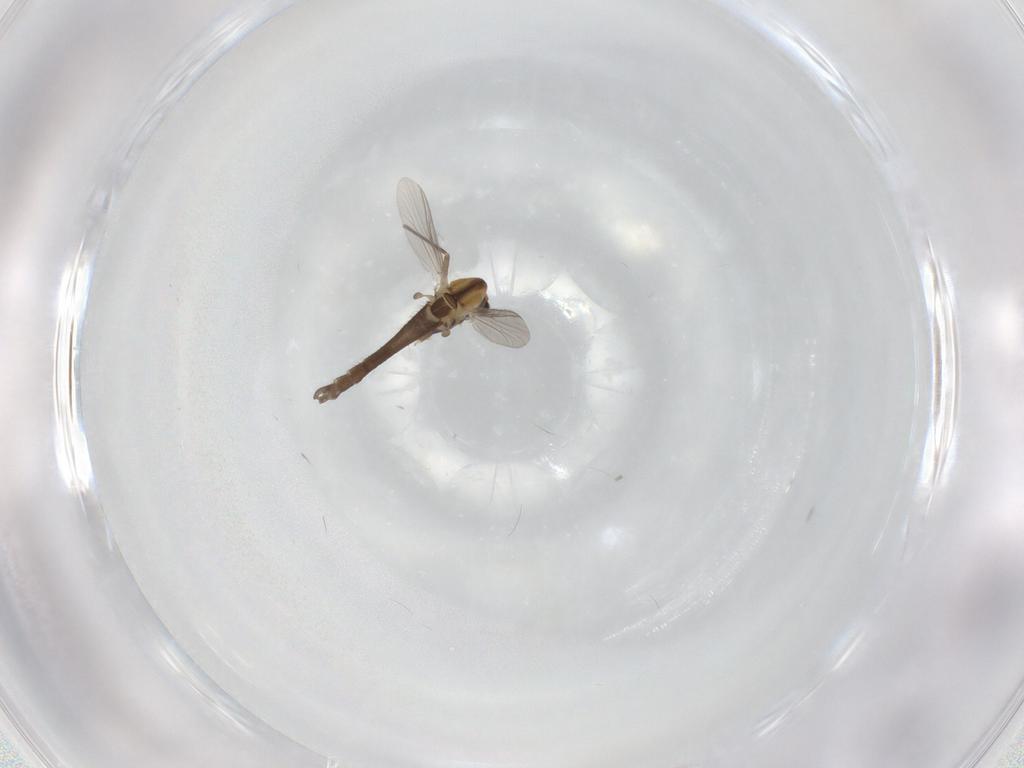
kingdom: Animalia
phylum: Arthropoda
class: Insecta
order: Diptera
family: Chironomidae
